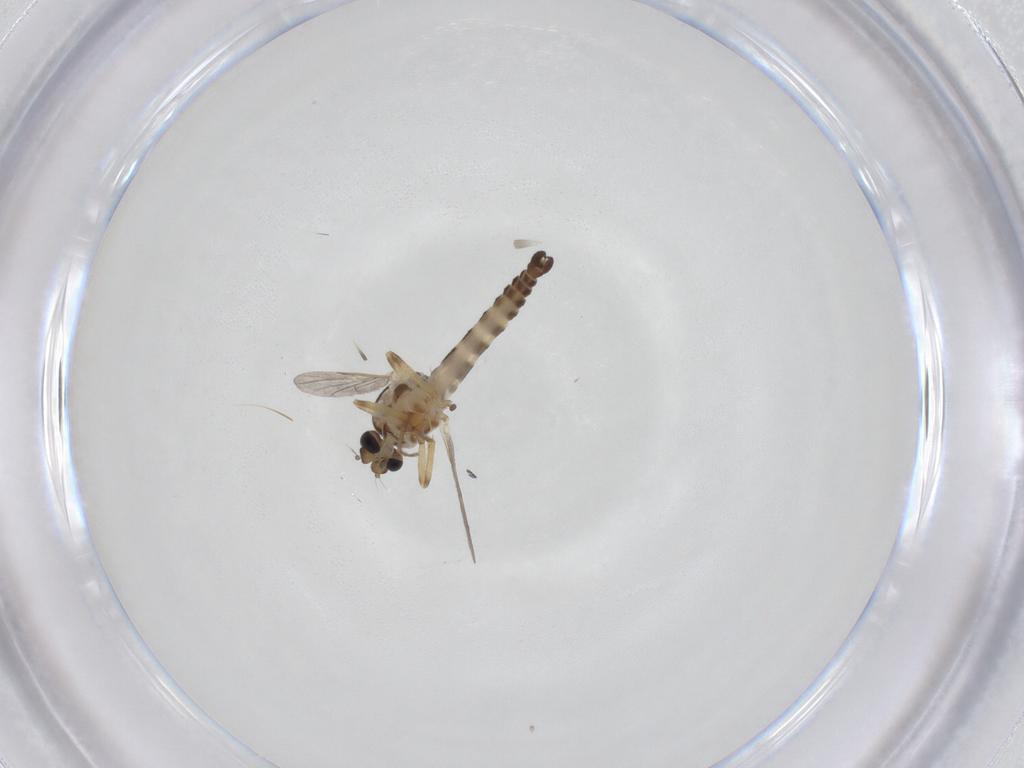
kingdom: Animalia
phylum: Arthropoda
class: Insecta
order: Diptera
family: Ceratopogonidae
